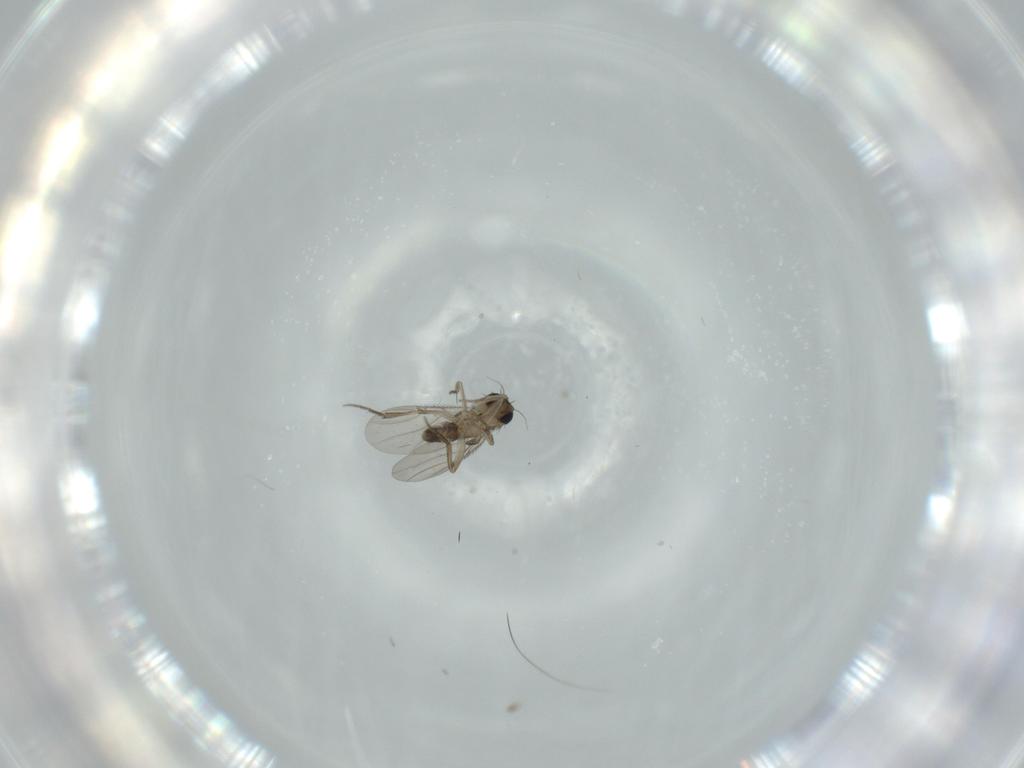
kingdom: Animalia
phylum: Arthropoda
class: Insecta
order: Diptera
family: Phoridae
